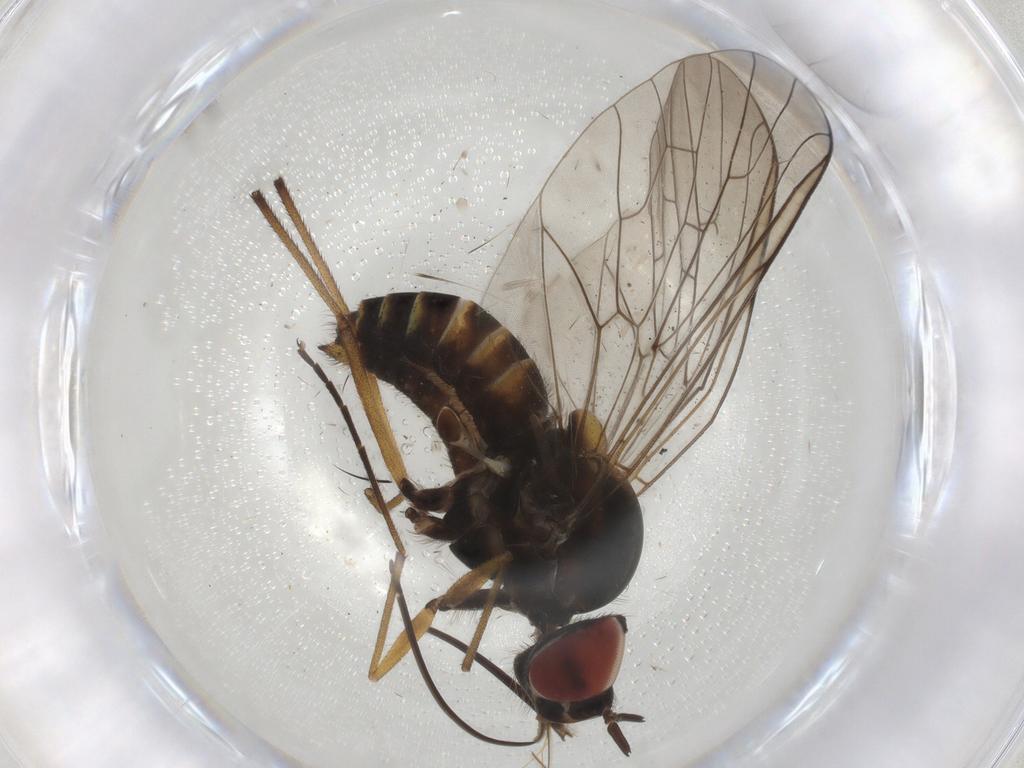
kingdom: Animalia
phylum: Arthropoda
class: Insecta
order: Diptera
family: Bombyliidae
